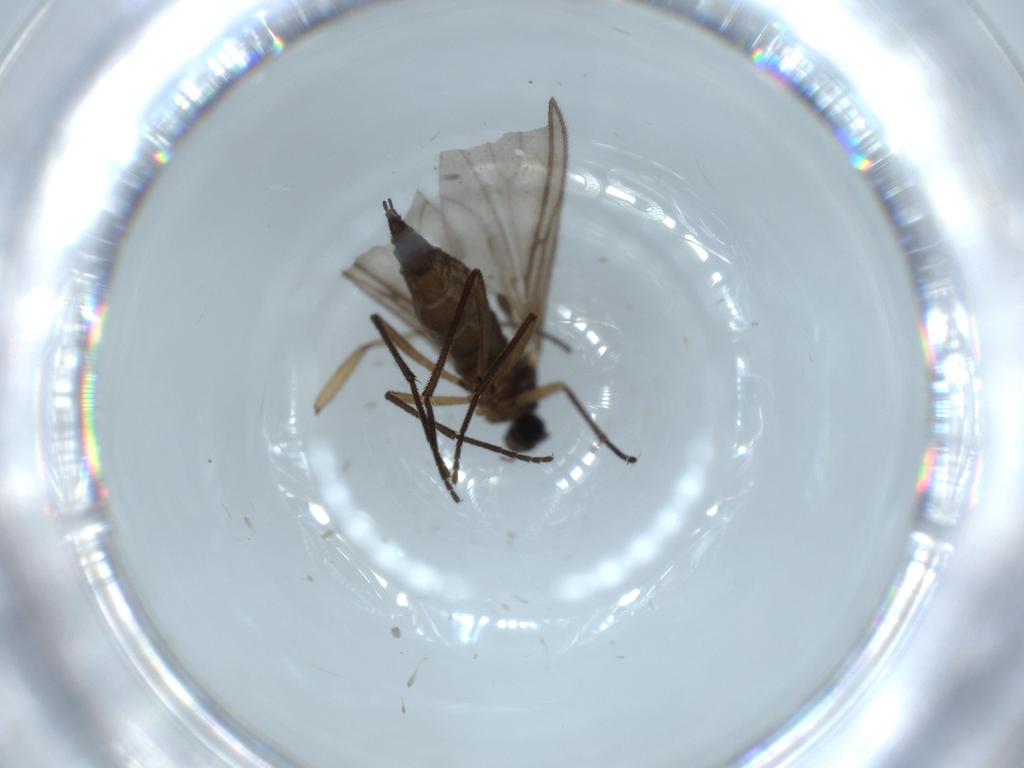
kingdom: Animalia
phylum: Arthropoda
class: Insecta
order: Diptera
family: Sciaridae
